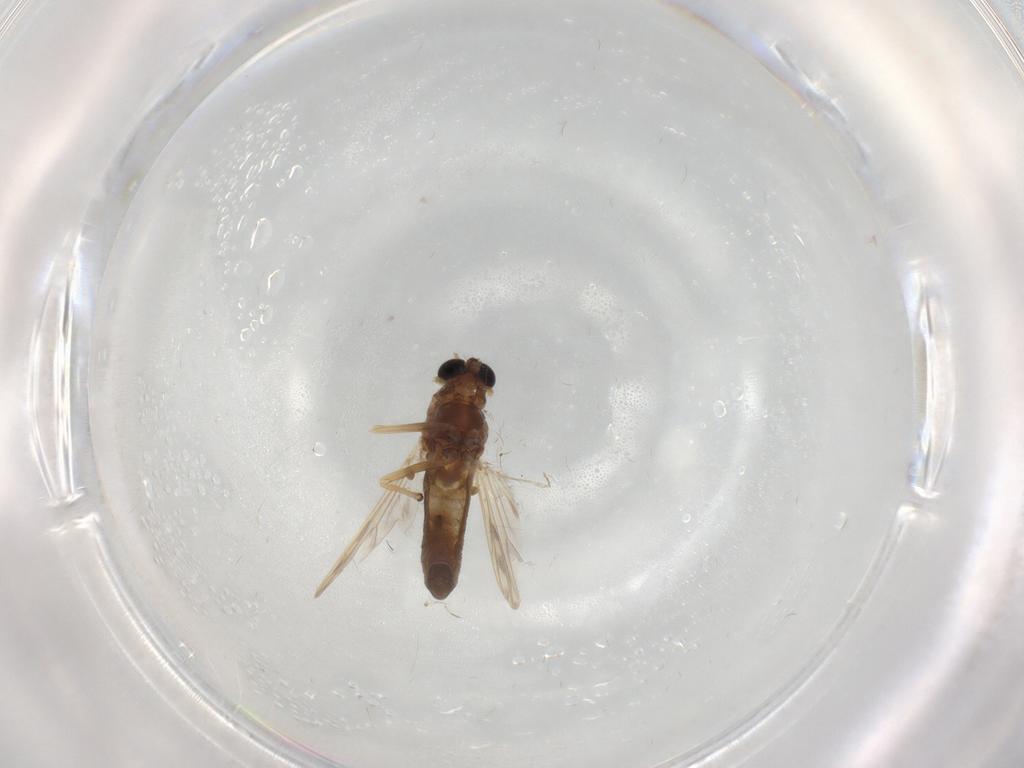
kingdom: Animalia
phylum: Arthropoda
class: Insecta
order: Diptera
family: Chironomidae
